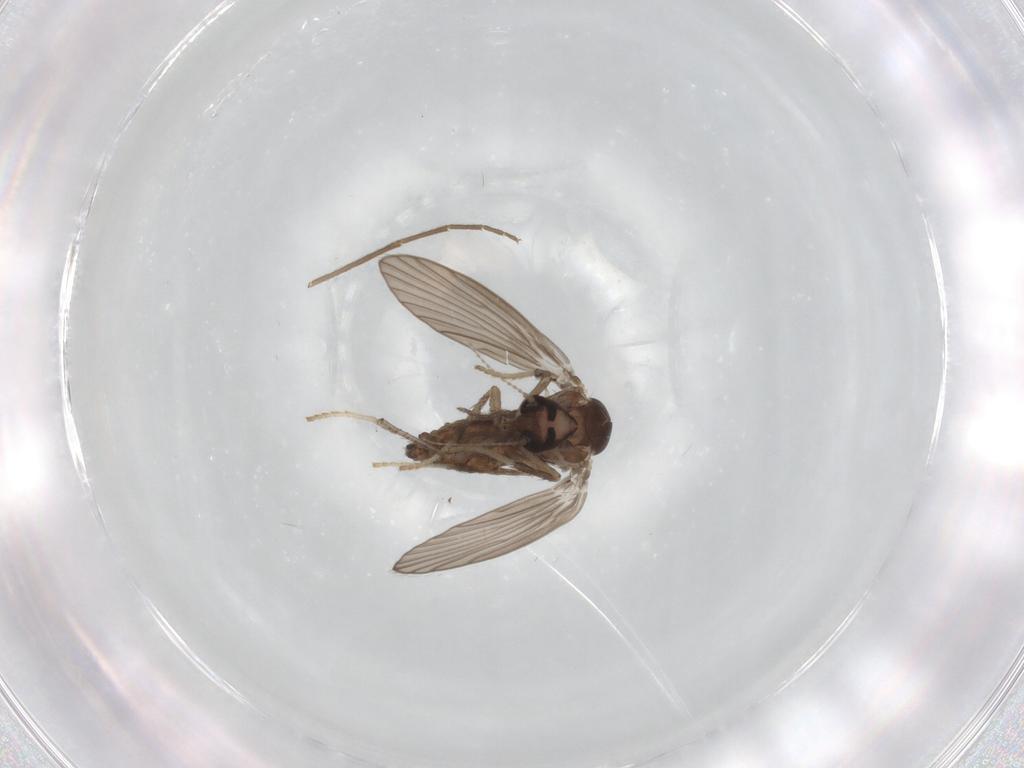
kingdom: Animalia
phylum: Arthropoda
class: Insecta
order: Diptera
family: Psychodidae
